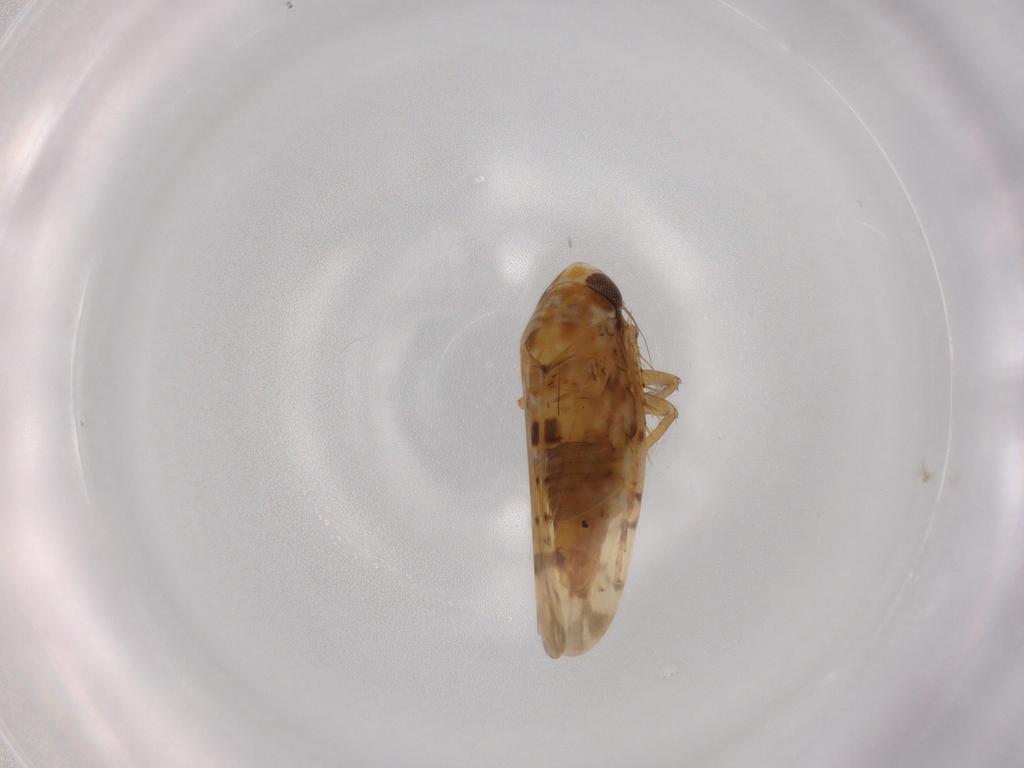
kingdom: Animalia
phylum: Arthropoda
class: Insecta
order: Hemiptera
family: Cicadellidae
